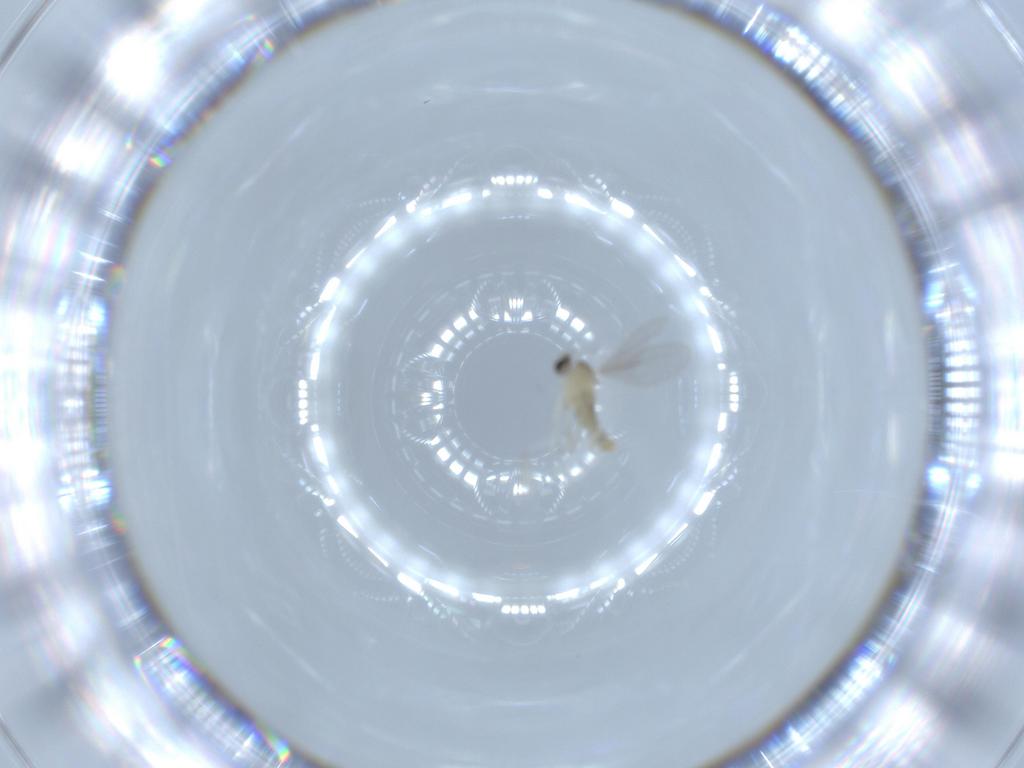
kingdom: Animalia
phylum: Arthropoda
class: Insecta
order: Diptera
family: Cecidomyiidae
